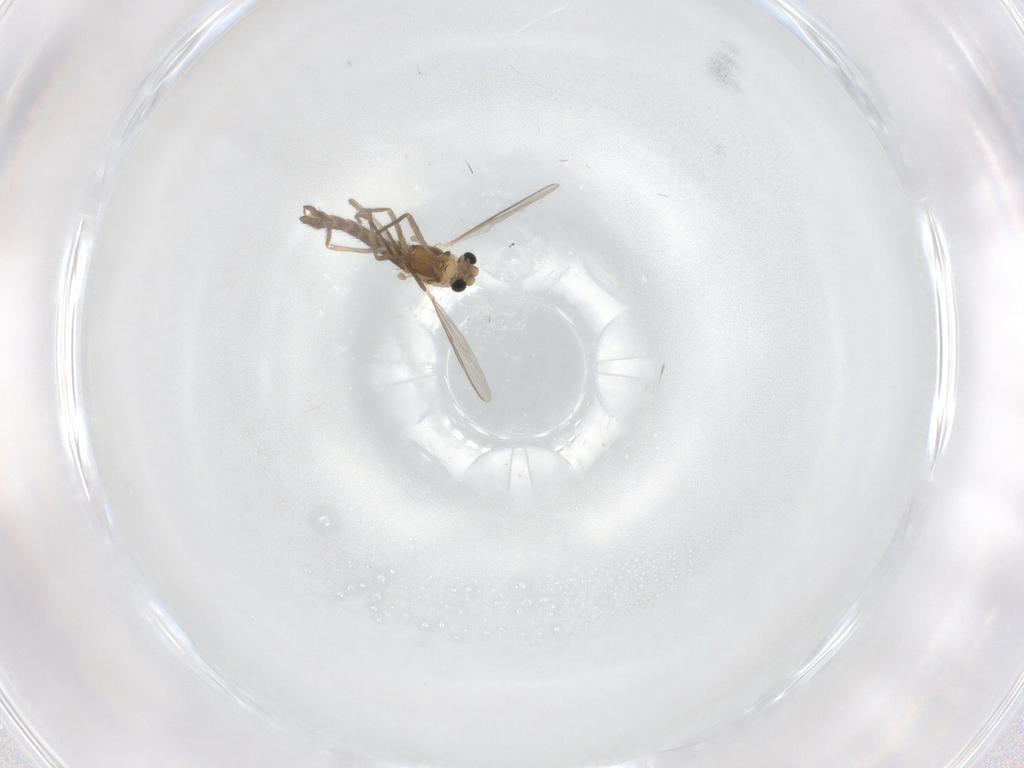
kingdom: Animalia
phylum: Arthropoda
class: Insecta
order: Diptera
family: Chironomidae
